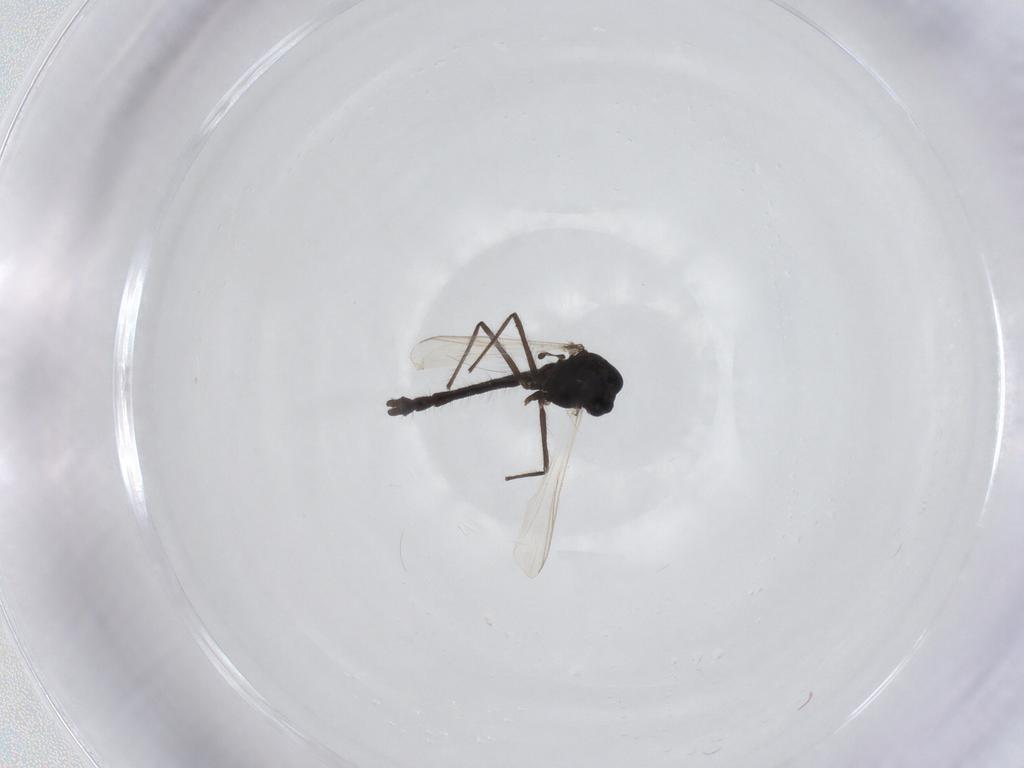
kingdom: Animalia
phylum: Arthropoda
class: Insecta
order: Diptera
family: Chironomidae
